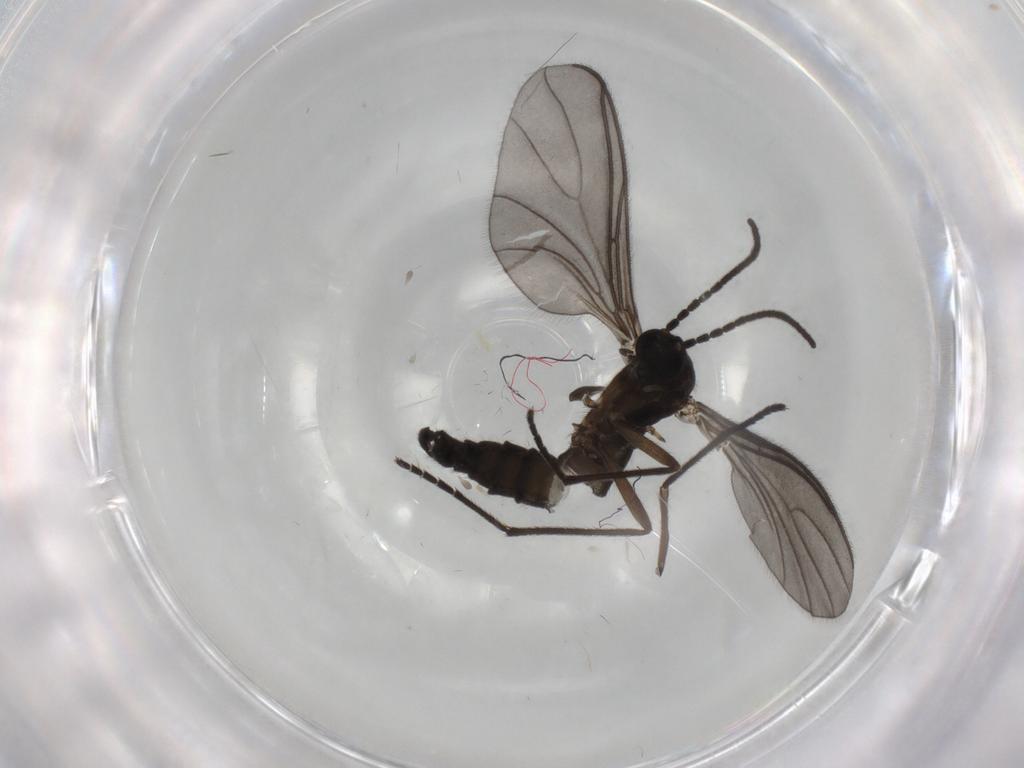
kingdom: Animalia
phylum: Arthropoda
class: Insecta
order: Diptera
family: Sciaridae
